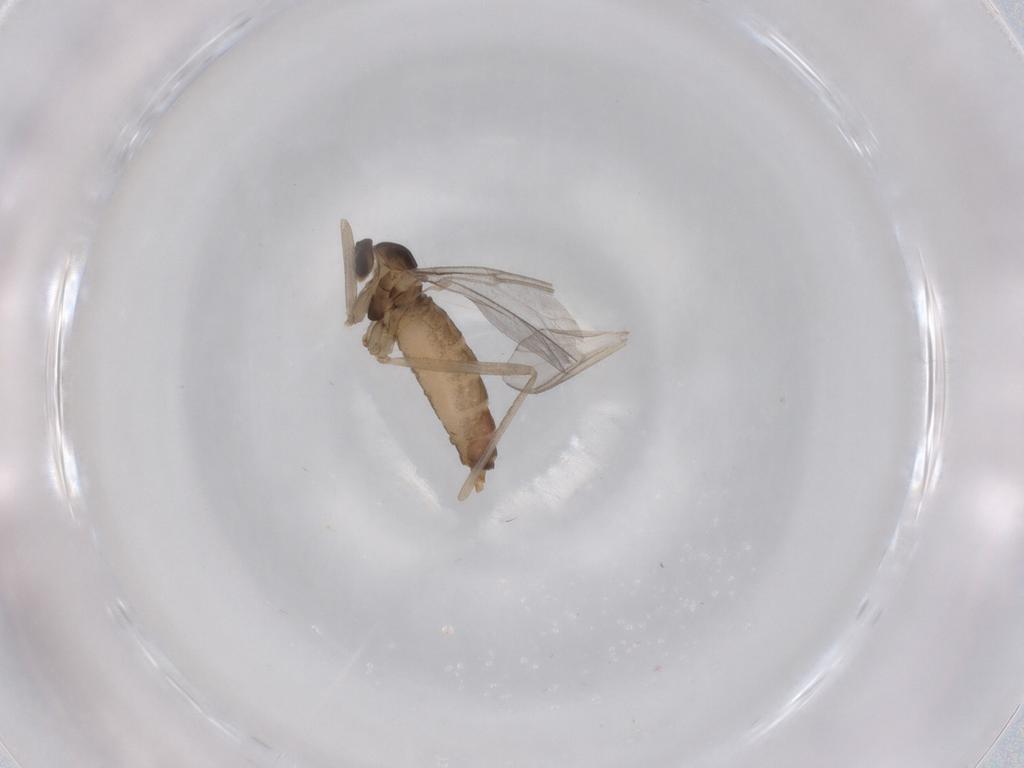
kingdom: Animalia
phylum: Arthropoda
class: Insecta
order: Diptera
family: Cecidomyiidae
